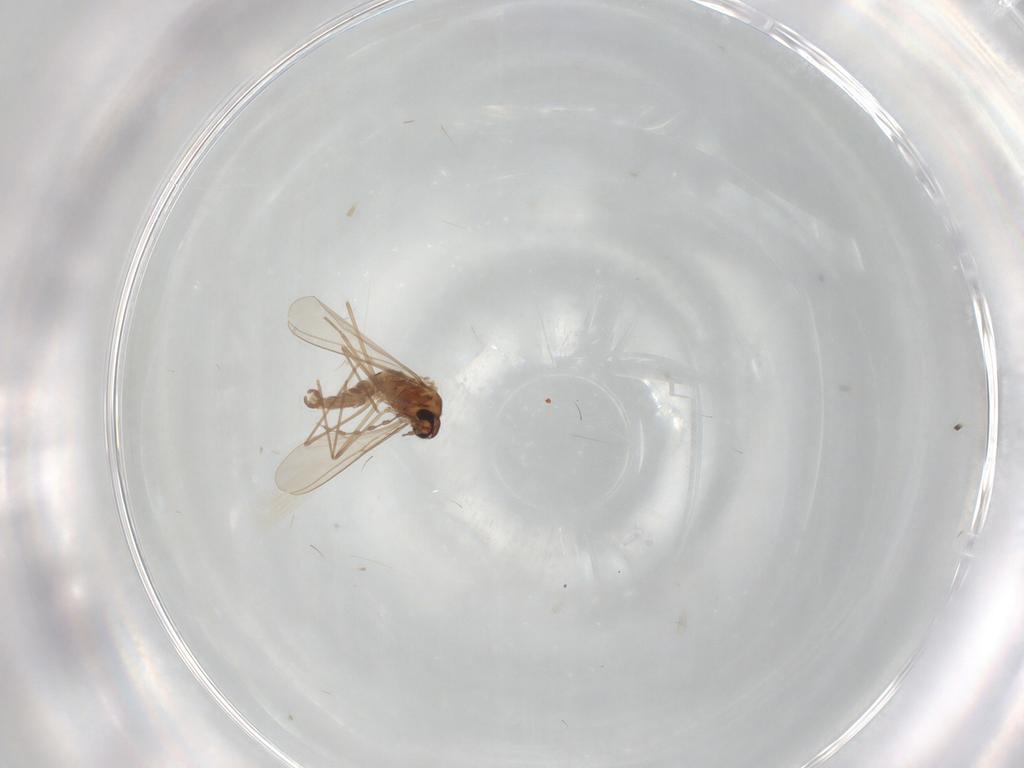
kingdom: Animalia
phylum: Arthropoda
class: Insecta
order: Diptera
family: Cecidomyiidae
